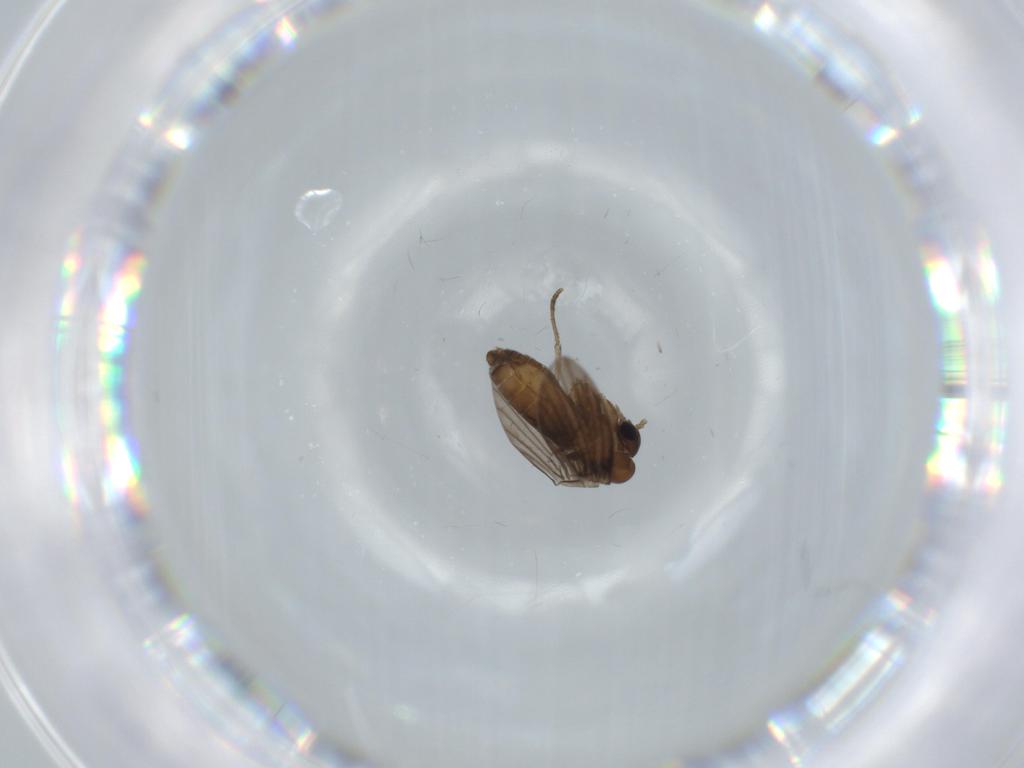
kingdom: Animalia
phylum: Arthropoda
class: Insecta
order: Diptera
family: Psychodidae
